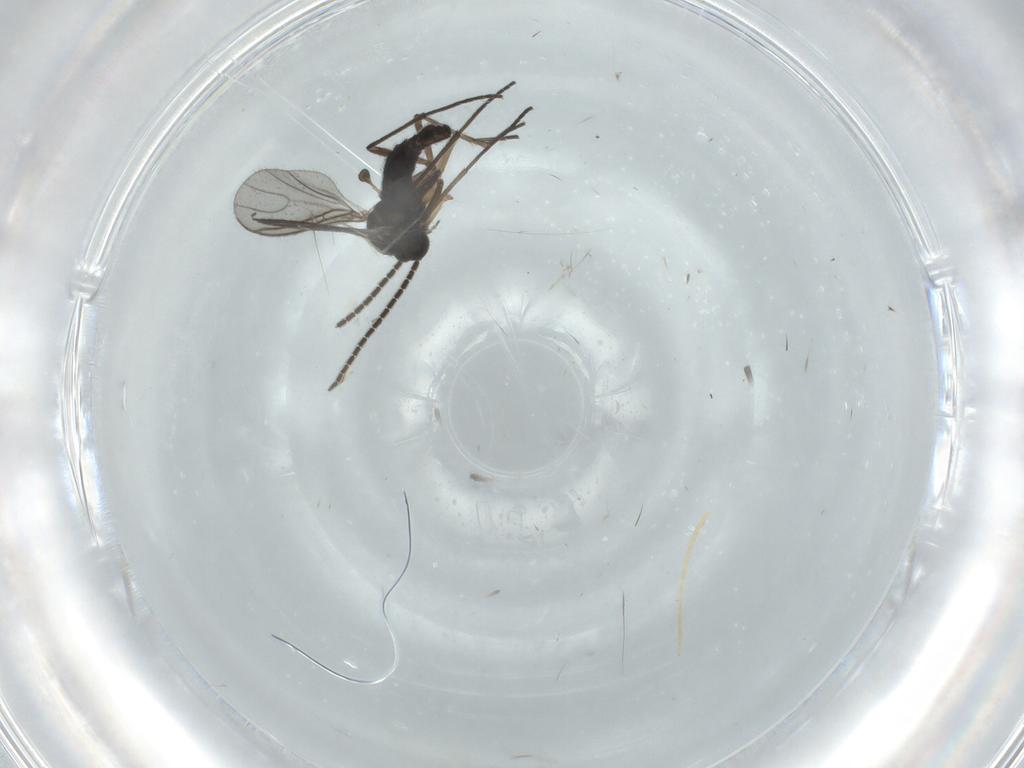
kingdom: Animalia
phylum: Arthropoda
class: Insecta
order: Diptera
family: Sciaridae
